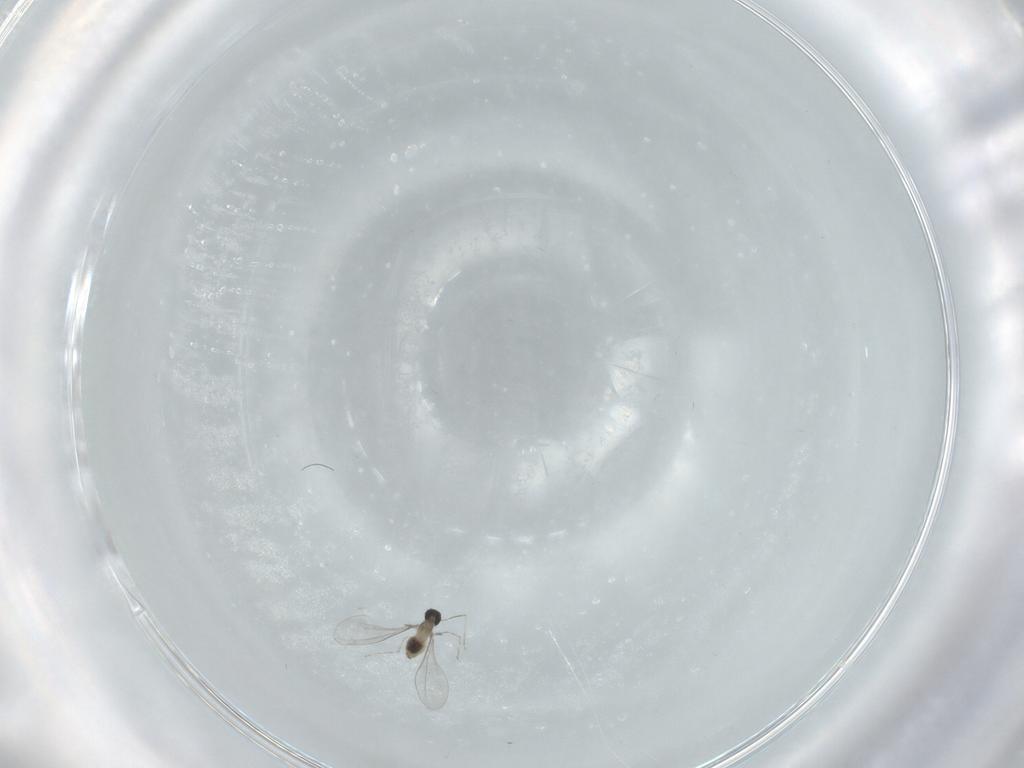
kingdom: Animalia
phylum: Arthropoda
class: Insecta
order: Diptera
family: Cecidomyiidae
